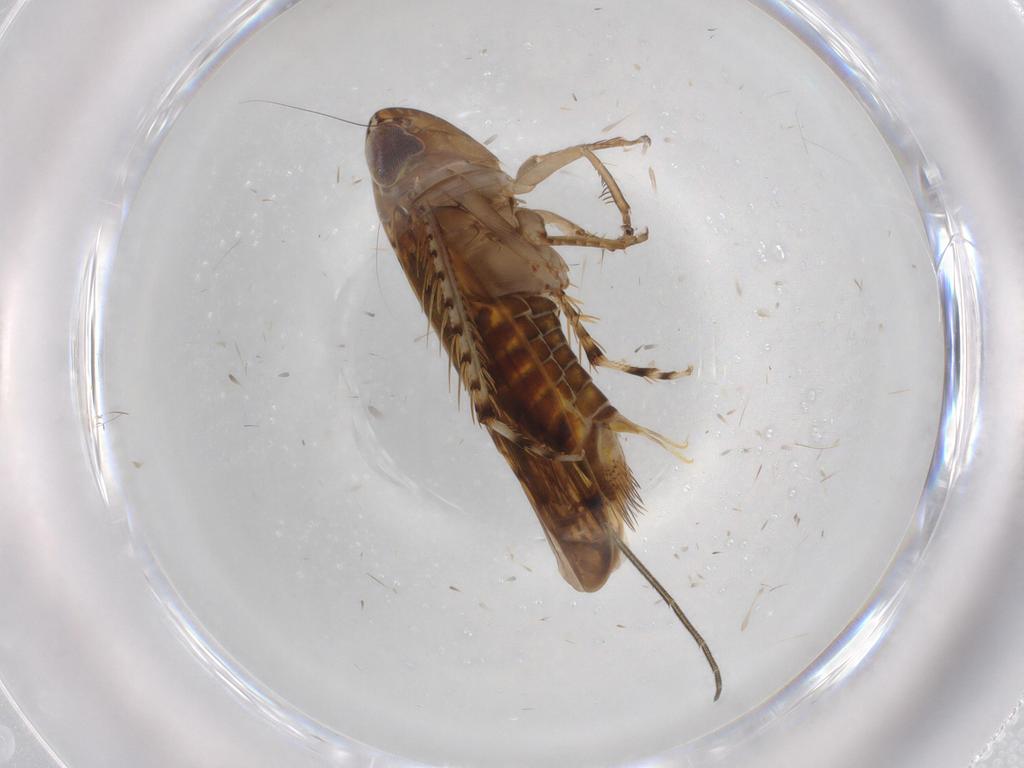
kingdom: Animalia
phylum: Arthropoda
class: Insecta
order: Hemiptera
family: Cicadellidae
